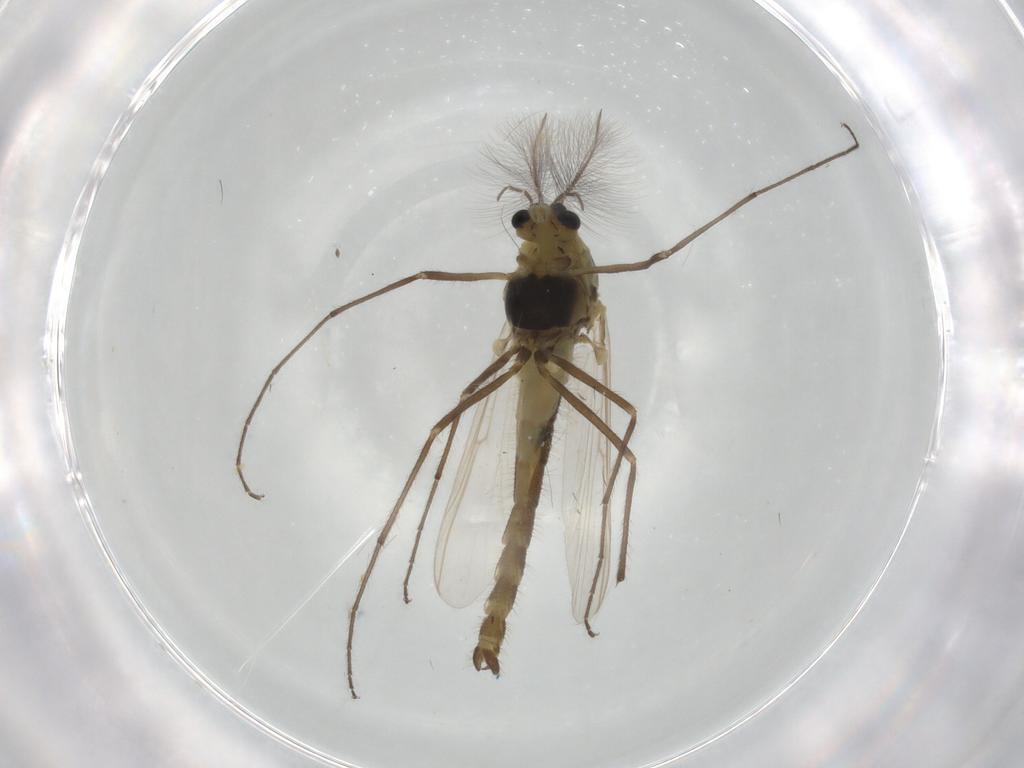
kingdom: Animalia
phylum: Arthropoda
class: Insecta
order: Diptera
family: Culicidae
